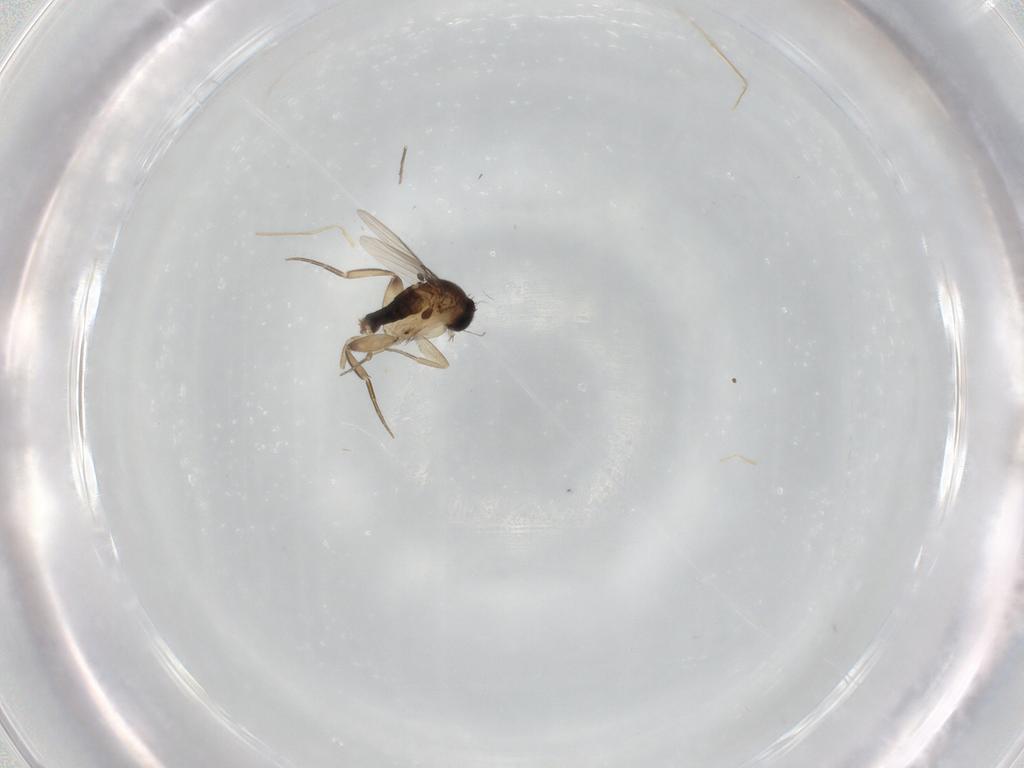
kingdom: Animalia
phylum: Arthropoda
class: Insecta
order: Diptera
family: Phoridae
